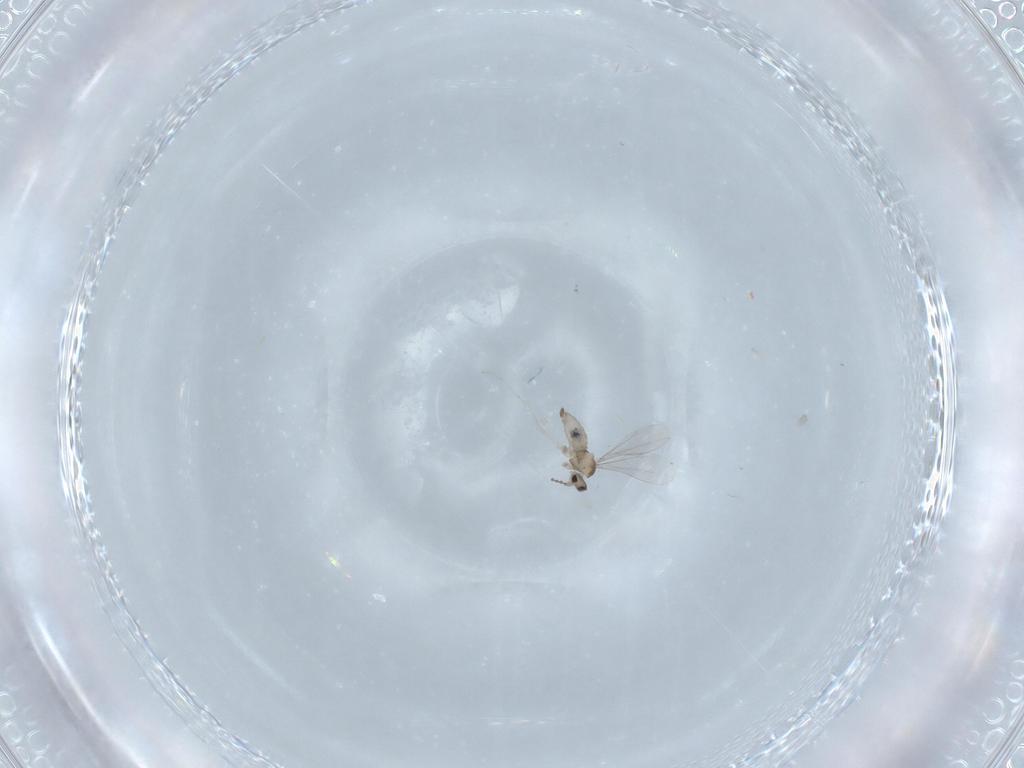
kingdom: Animalia
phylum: Arthropoda
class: Insecta
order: Diptera
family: Cecidomyiidae
